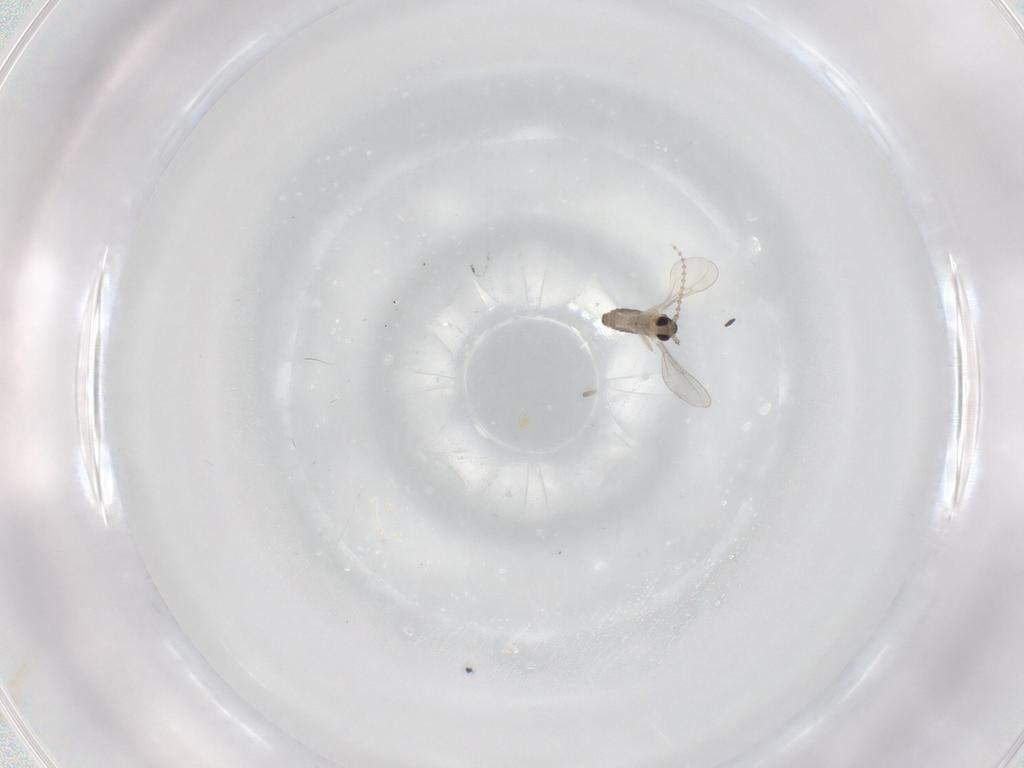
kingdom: Animalia
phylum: Arthropoda
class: Insecta
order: Diptera
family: Cecidomyiidae
